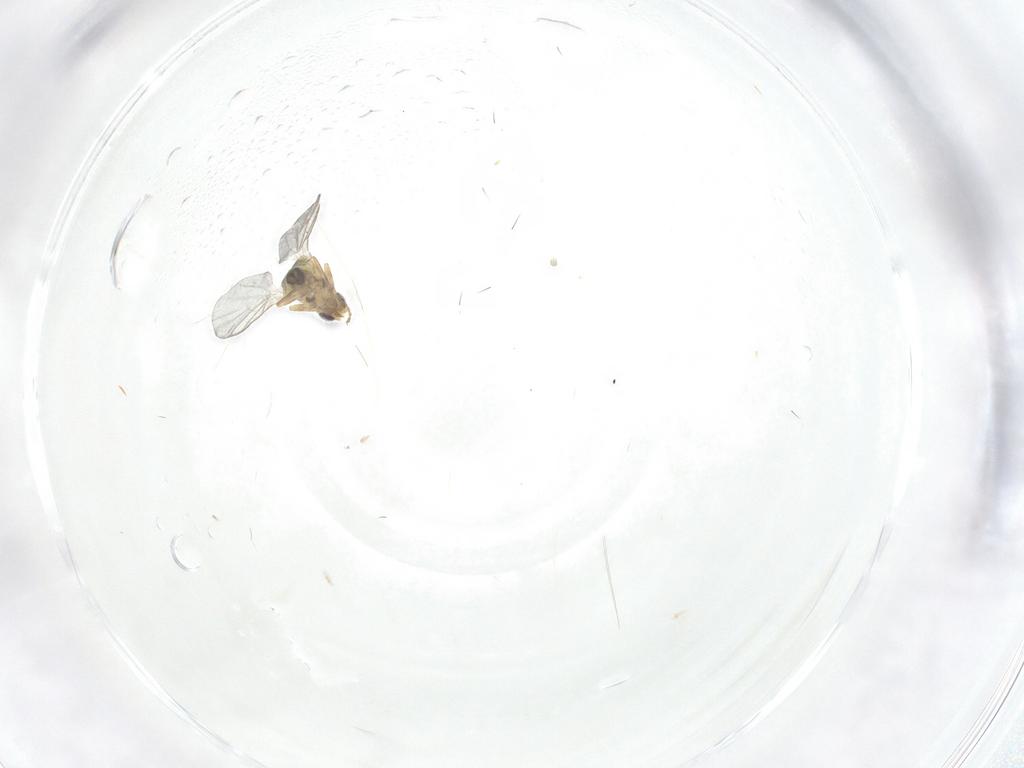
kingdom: Animalia
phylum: Arthropoda
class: Insecta
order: Diptera
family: Agromyzidae
